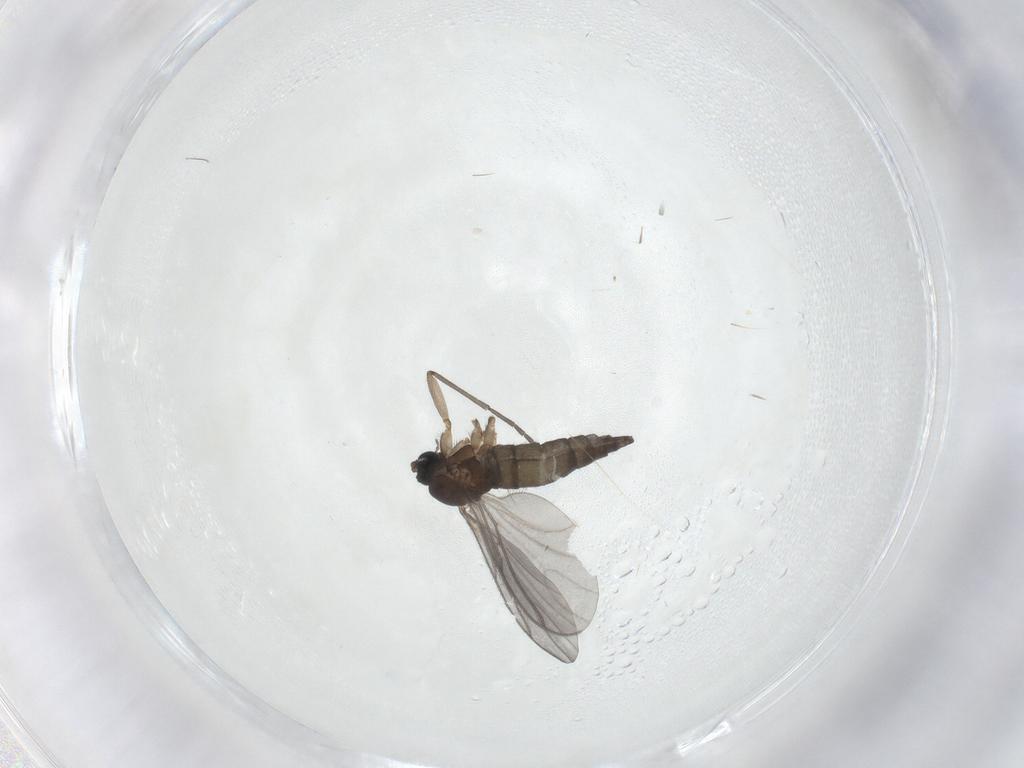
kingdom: Animalia
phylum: Arthropoda
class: Insecta
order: Diptera
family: Sciaridae
